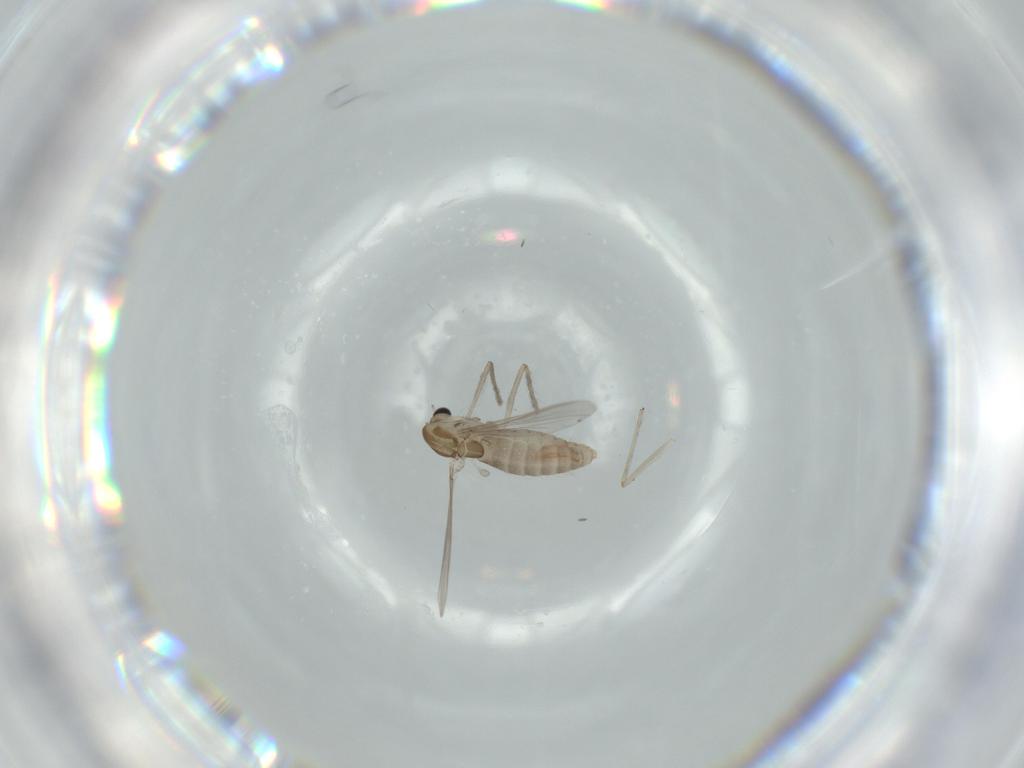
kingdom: Animalia
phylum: Arthropoda
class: Insecta
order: Diptera
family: Chironomidae
